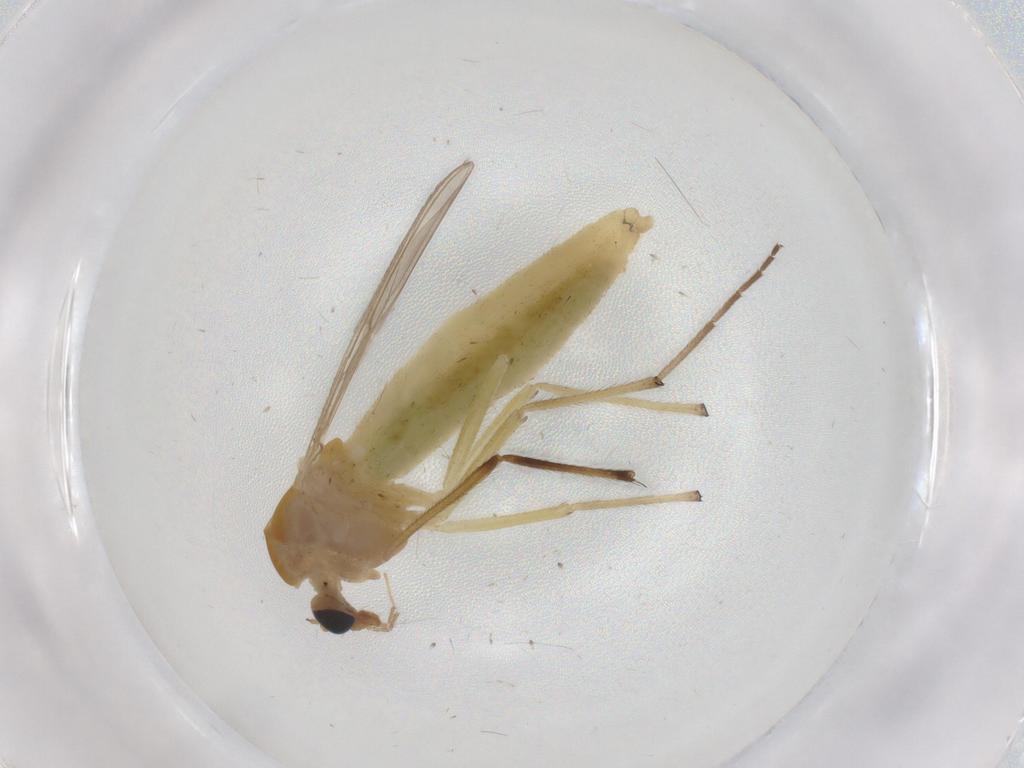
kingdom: Animalia
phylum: Arthropoda
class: Insecta
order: Diptera
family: Chironomidae
